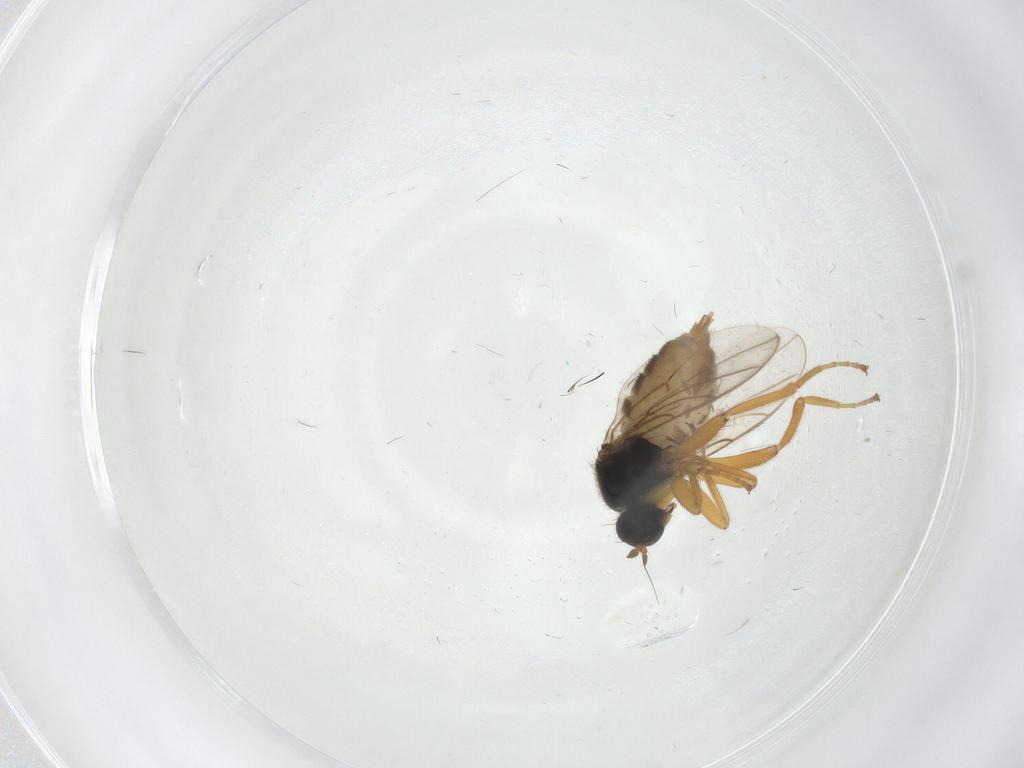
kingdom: Animalia
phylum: Arthropoda
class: Insecta
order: Diptera
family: Hybotidae
